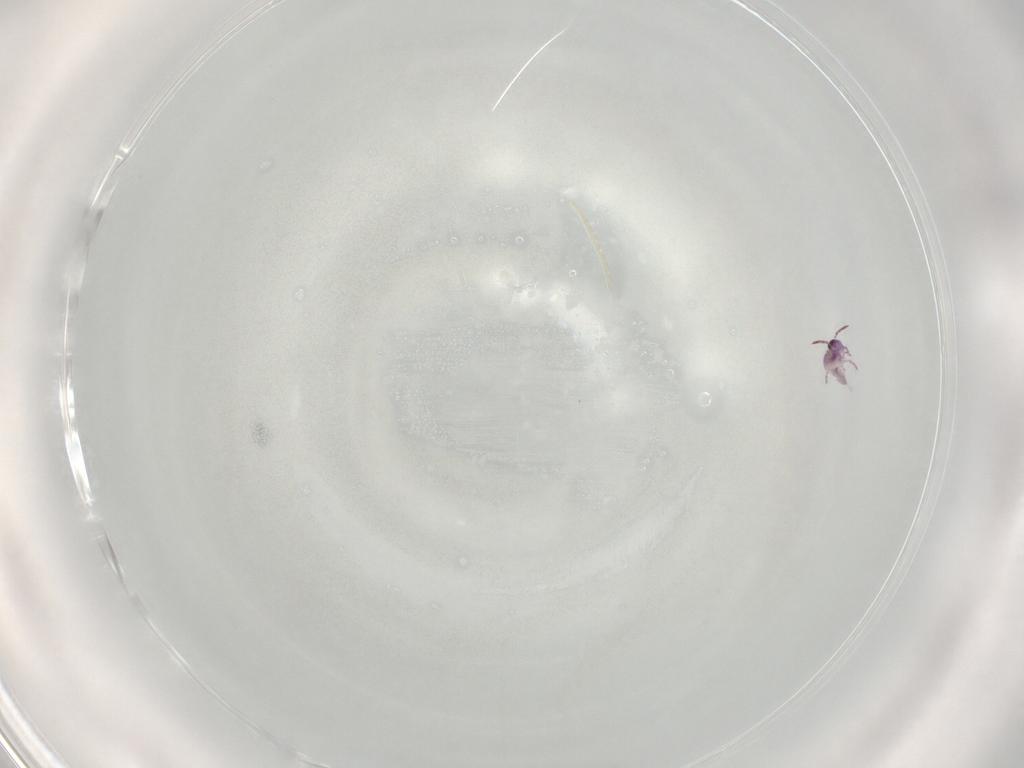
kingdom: Animalia
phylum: Arthropoda
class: Collembola
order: Symphypleona
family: Sminthurididae
